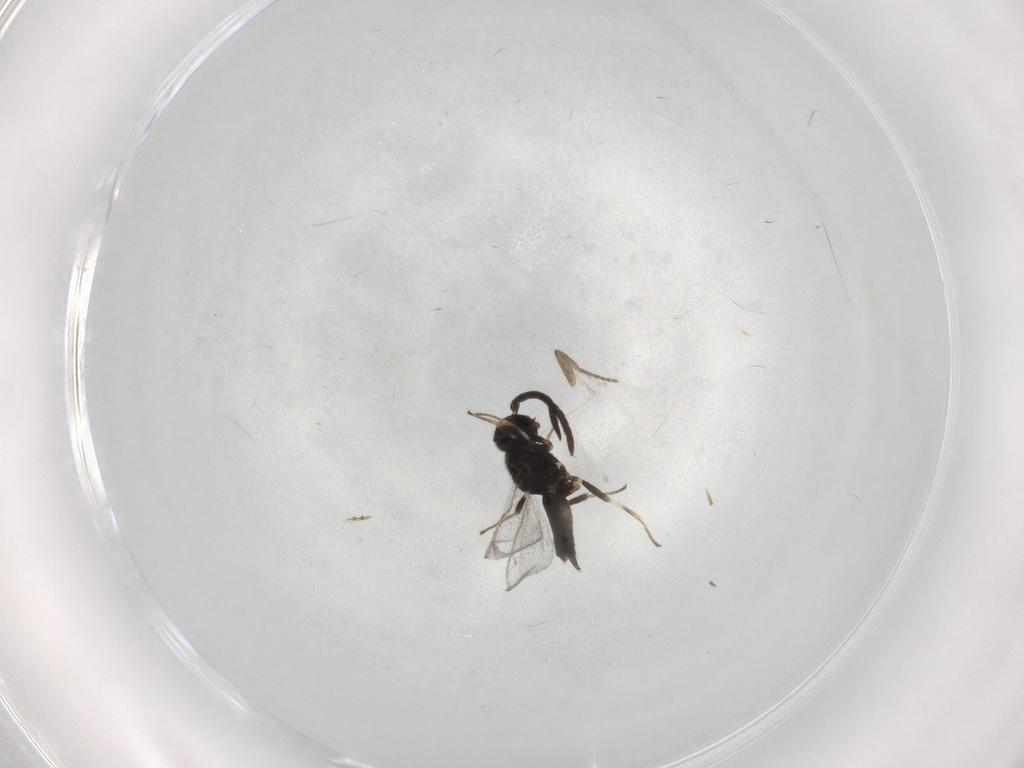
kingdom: Animalia
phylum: Arthropoda
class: Insecta
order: Hymenoptera
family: Eupelmidae
